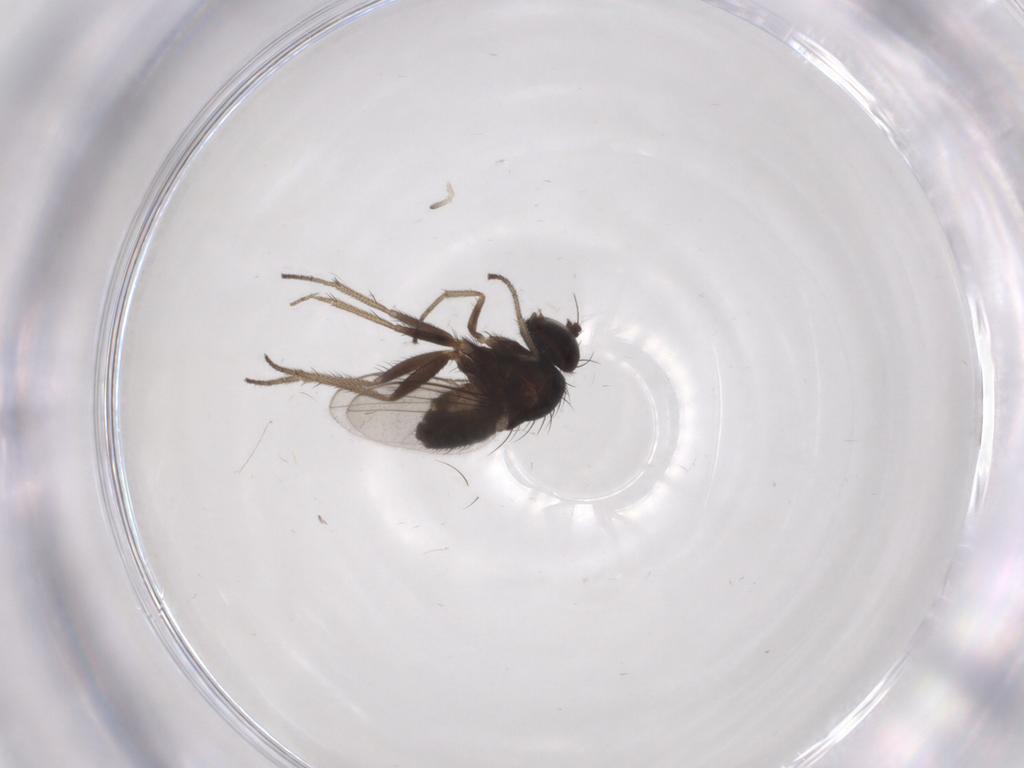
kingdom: Animalia
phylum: Arthropoda
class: Insecta
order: Diptera
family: Dolichopodidae
